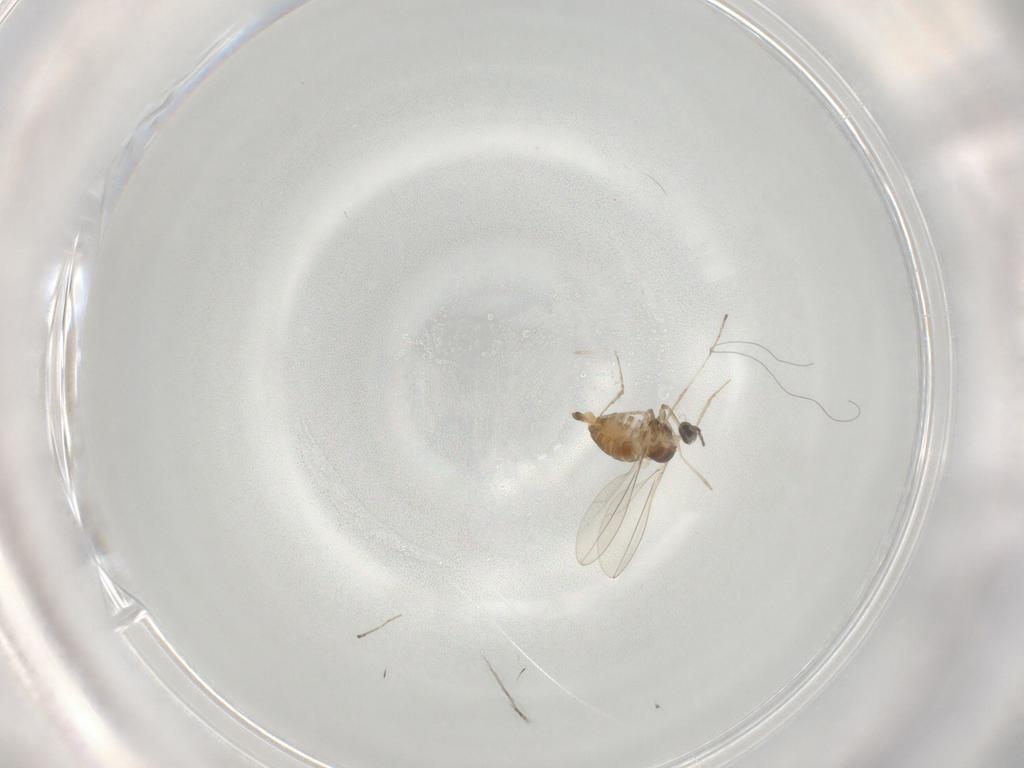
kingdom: Animalia
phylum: Arthropoda
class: Insecta
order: Diptera
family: Cecidomyiidae
